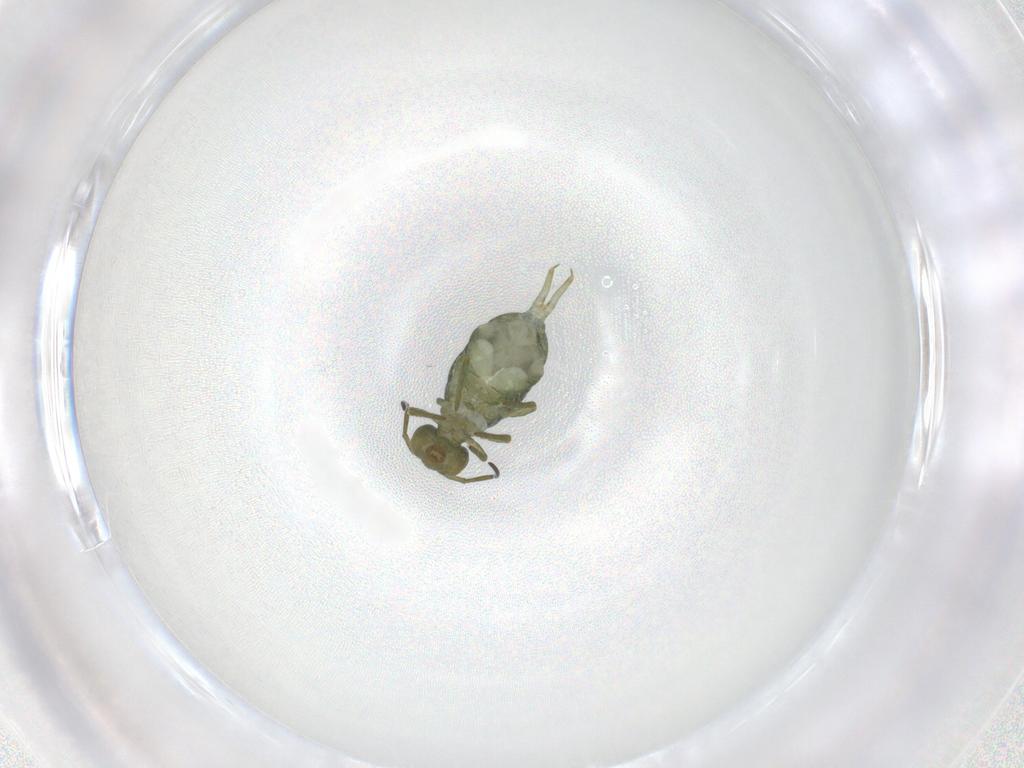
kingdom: Animalia
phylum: Arthropoda
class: Collembola
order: Symphypleona
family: Sminthuridae
